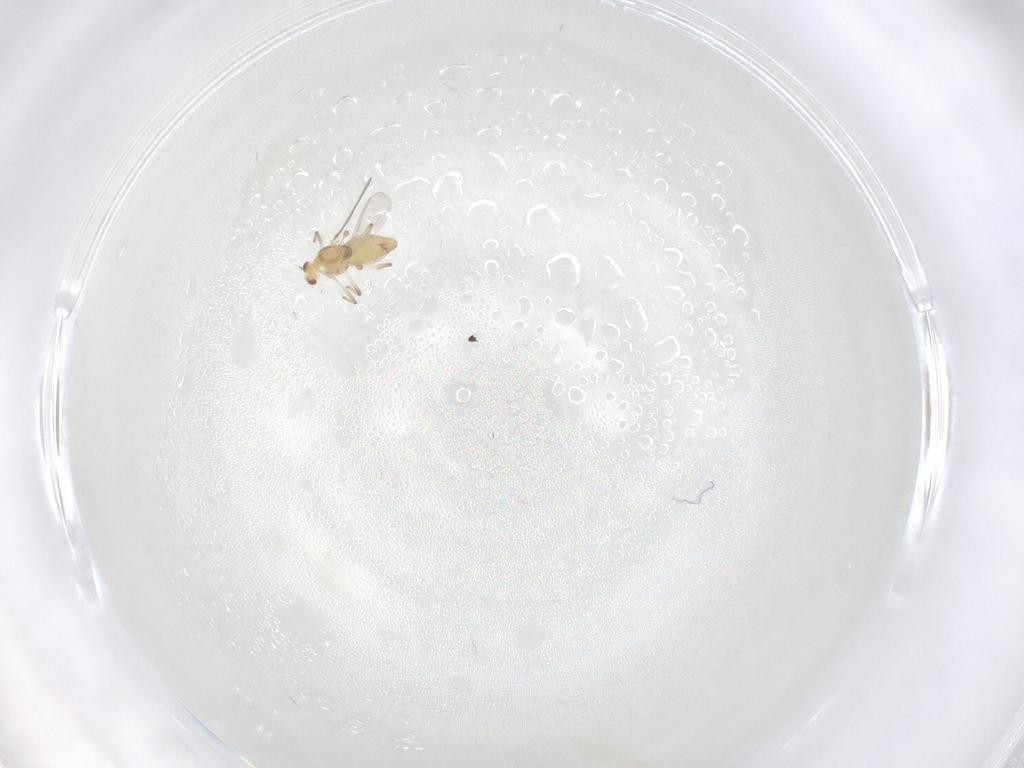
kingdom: Animalia
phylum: Arthropoda
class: Insecta
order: Diptera
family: Chironomidae
